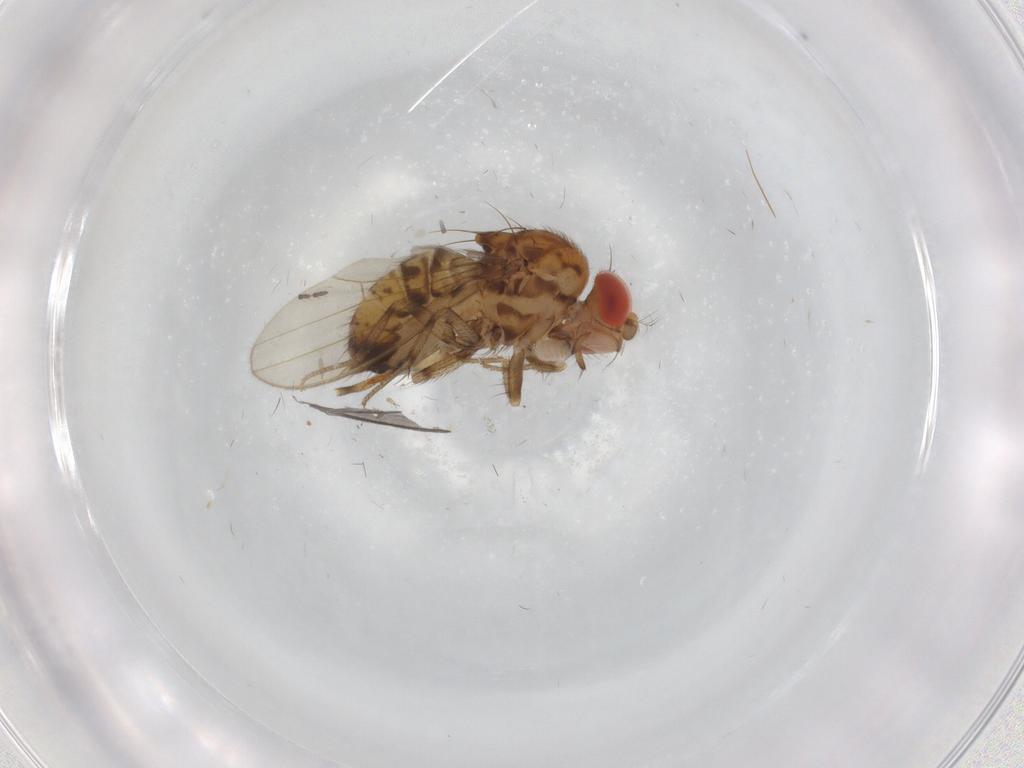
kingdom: Animalia
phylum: Arthropoda
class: Insecta
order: Diptera
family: Drosophilidae
